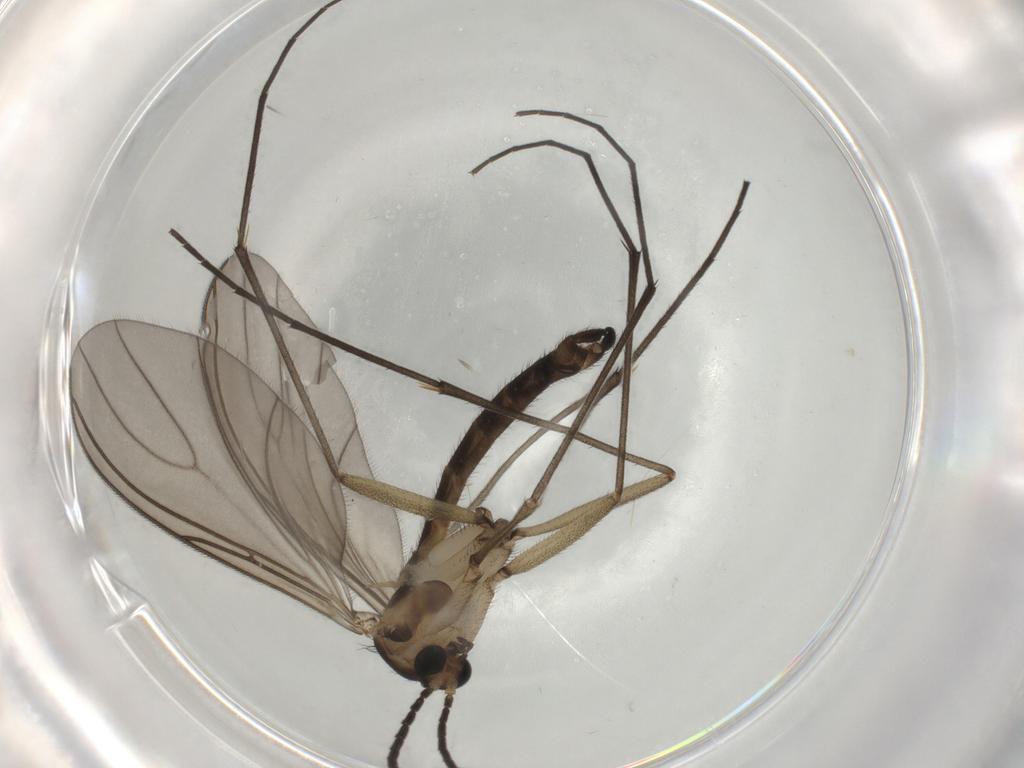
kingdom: Animalia
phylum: Arthropoda
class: Insecta
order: Diptera
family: Sciaridae
